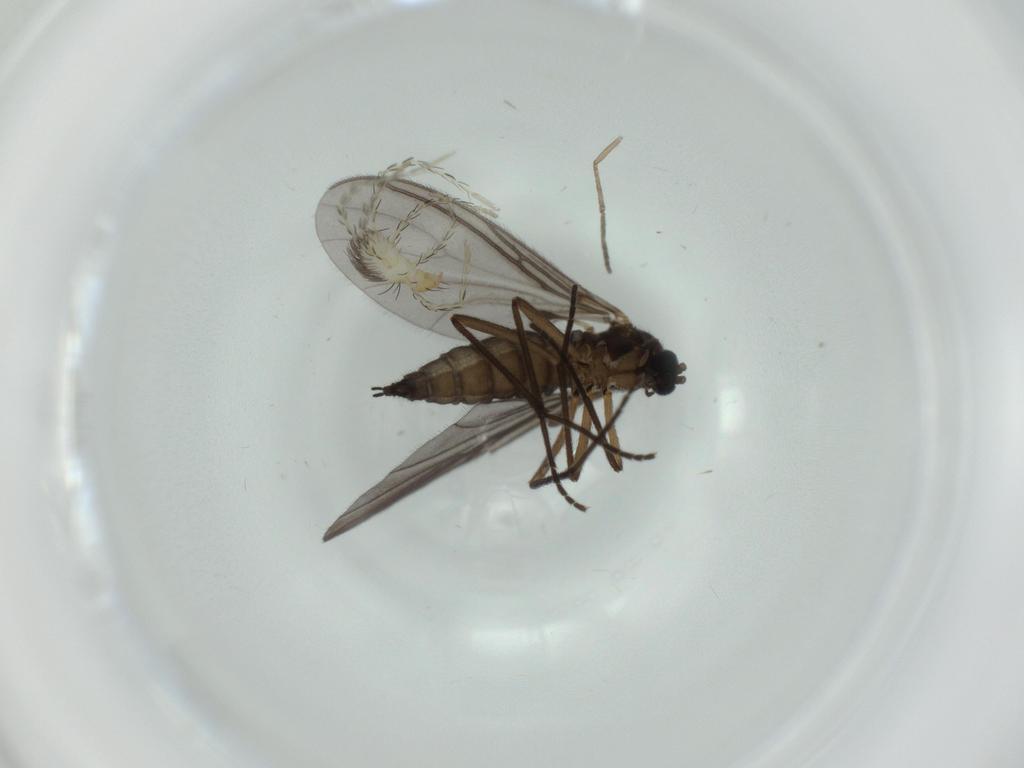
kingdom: Animalia
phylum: Arthropoda
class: Insecta
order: Diptera
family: Sciaridae
